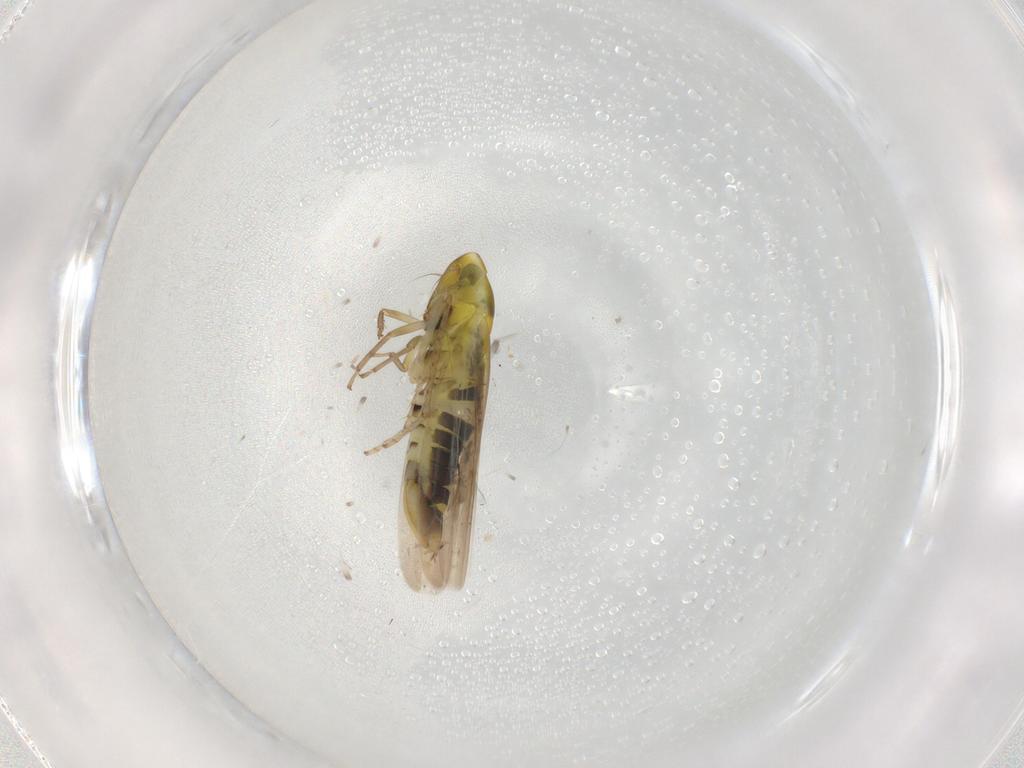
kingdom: Animalia
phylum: Arthropoda
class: Insecta
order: Hemiptera
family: Cicadellidae
